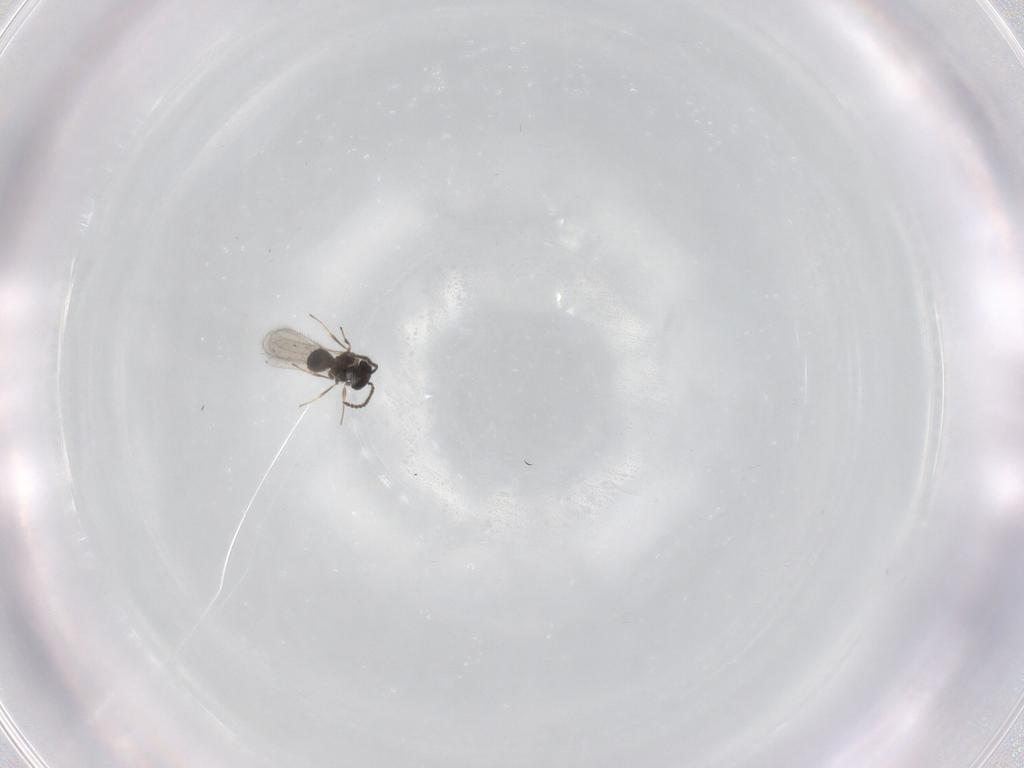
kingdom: Animalia
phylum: Arthropoda
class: Insecta
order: Hymenoptera
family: Scelionidae
